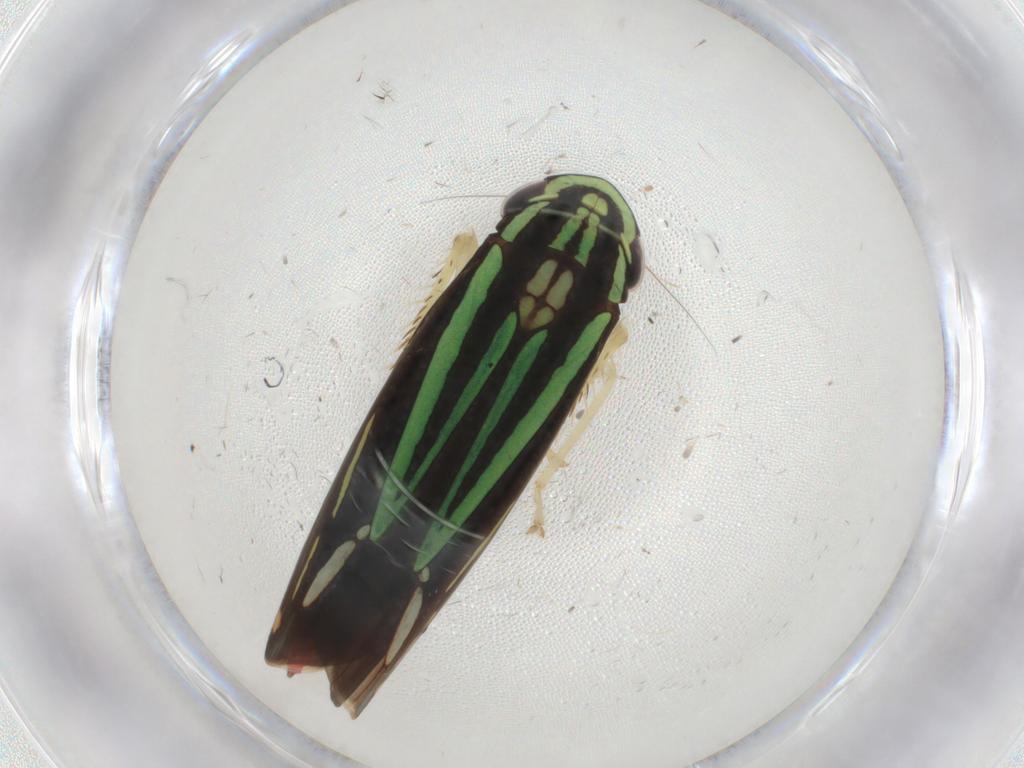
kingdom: Animalia
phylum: Arthropoda
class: Insecta
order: Hemiptera
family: Cicadellidae
